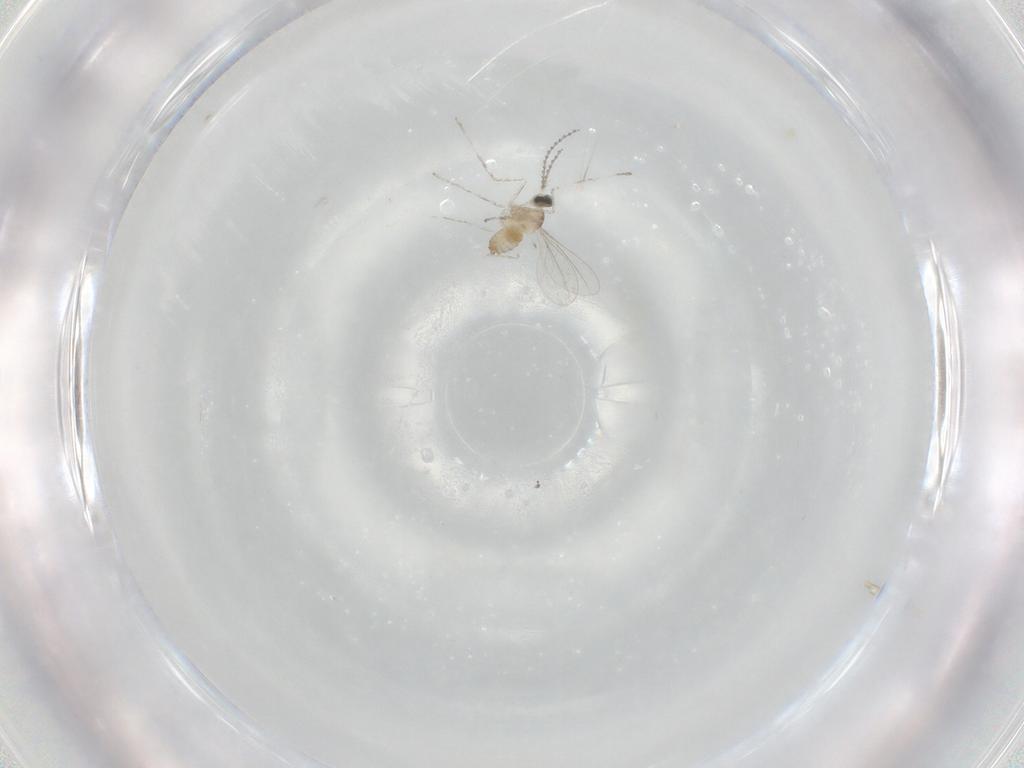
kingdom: Animalia
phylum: Arthropoda
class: Insecta
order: Diptera
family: Cecidomyiidae
